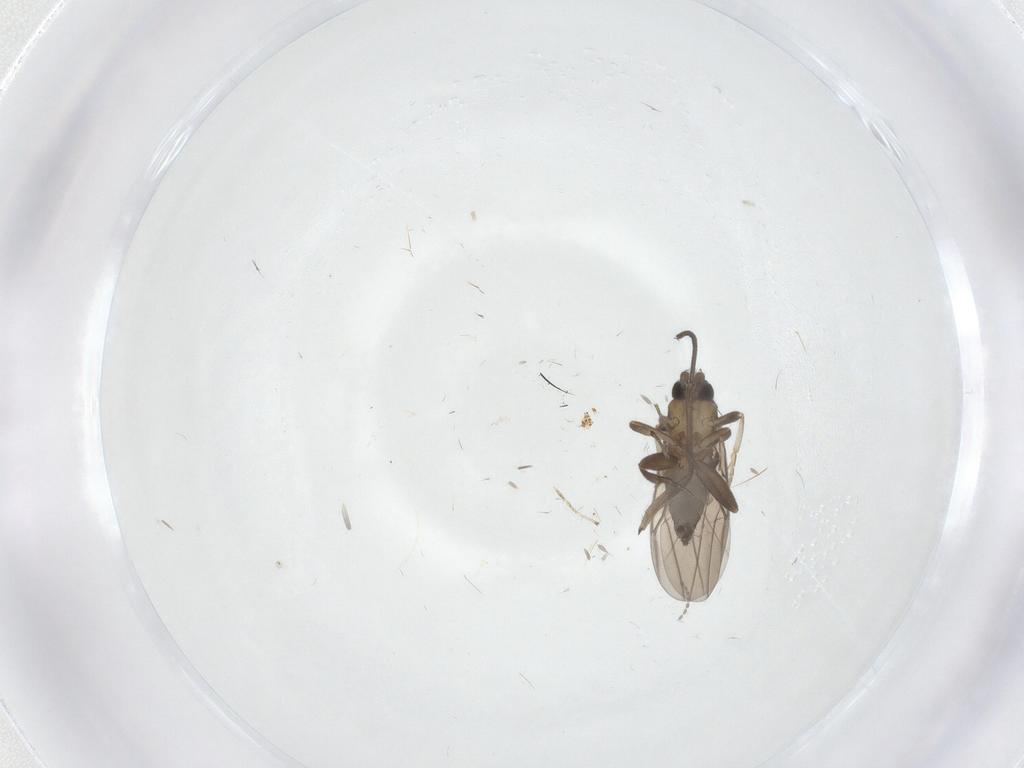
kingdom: Animalia
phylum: Arthropoda
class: Insecta
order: Diptera
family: Sciaridae
